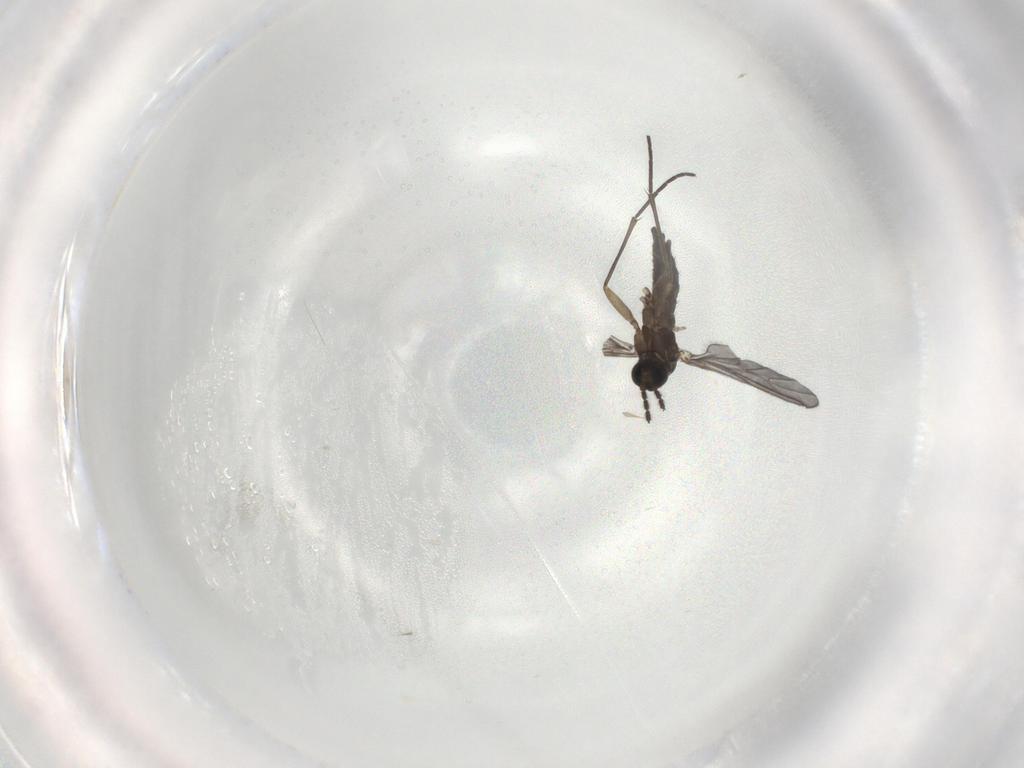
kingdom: Animalia
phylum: Arthropoda
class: Insecta
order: Diptera
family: Sciaridae
